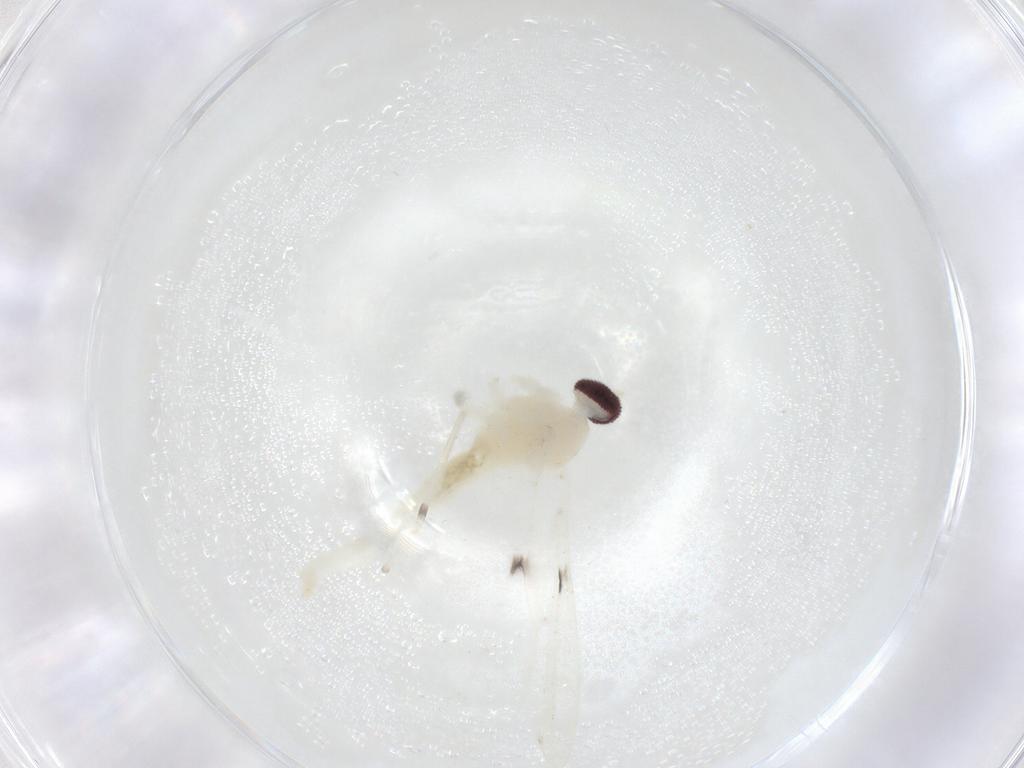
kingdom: Animalia
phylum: Arthropoda
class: Insecta
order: Diptera
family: Cecidomyiidae
